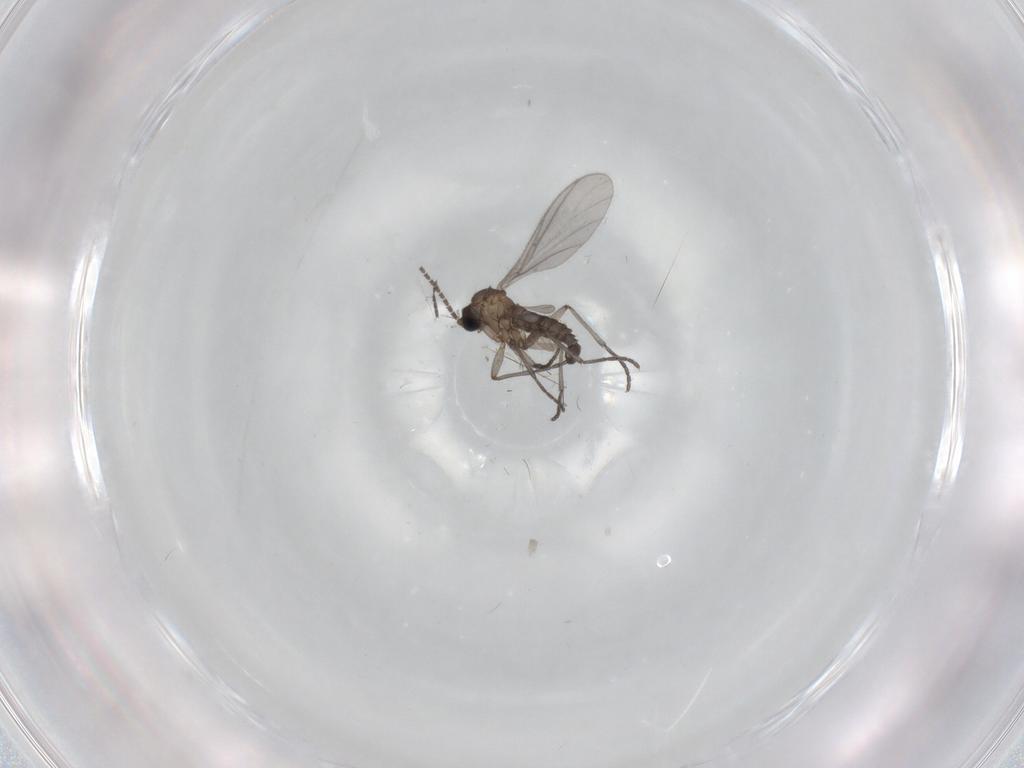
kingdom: Animalia
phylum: Arthropoda
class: Insecta
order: Diptera
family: Sciaridae
